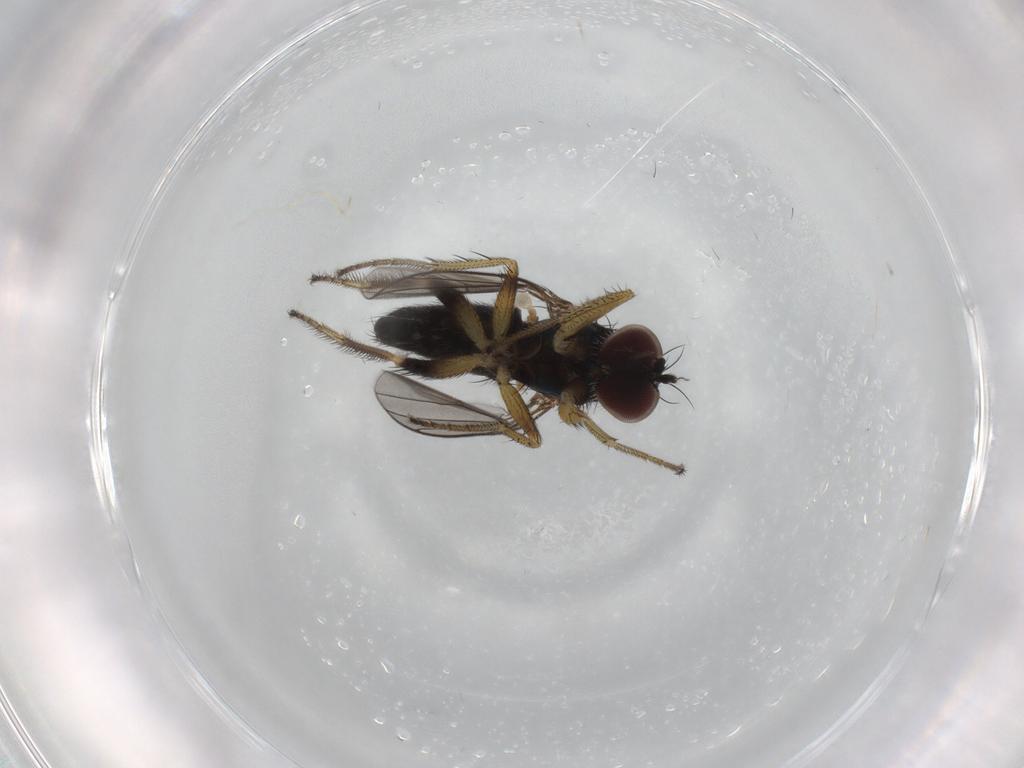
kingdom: Animalia
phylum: Arthropoda
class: Insecta
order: Diptera
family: Dolichopodidae
